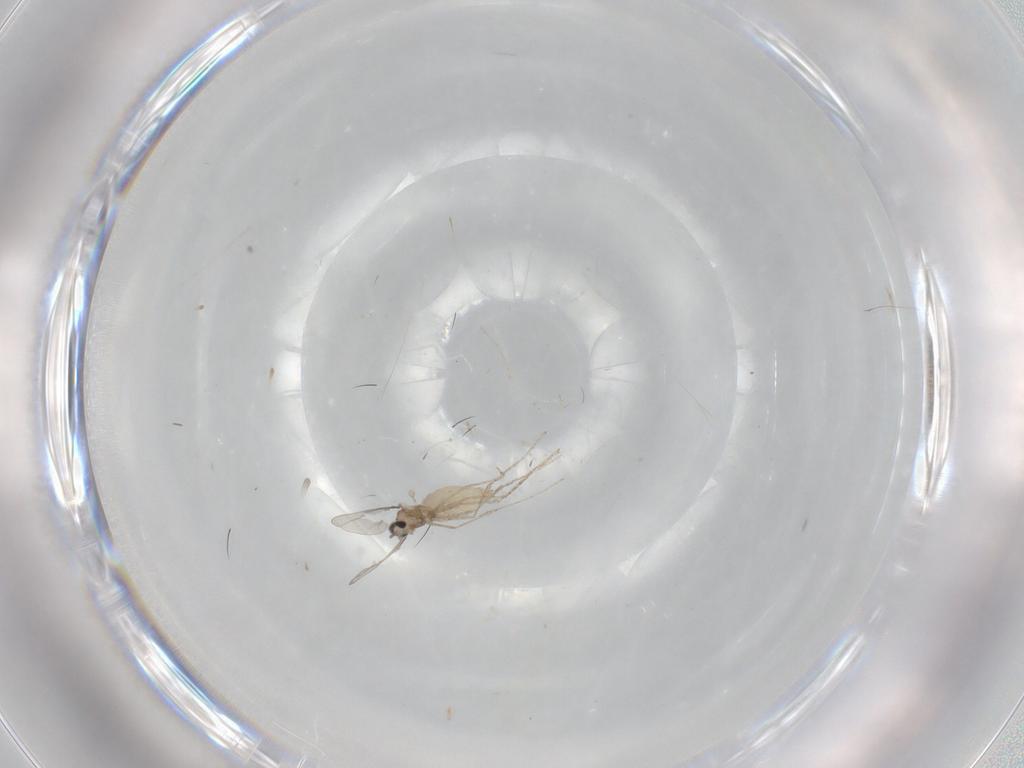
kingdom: Animalia
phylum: Arthropoda
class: Insecta
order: Diptera
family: Cecidomyiidae
